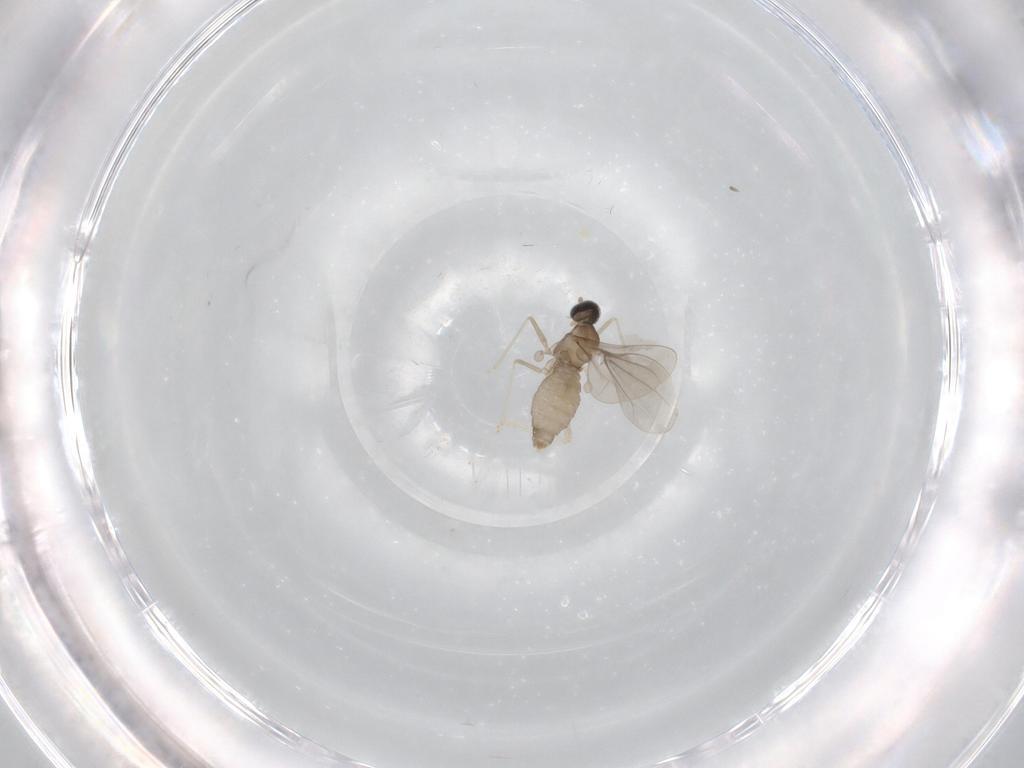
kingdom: Animalia
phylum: Arthropoda
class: Insecta
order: Diptera
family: Cecidomyiidae
